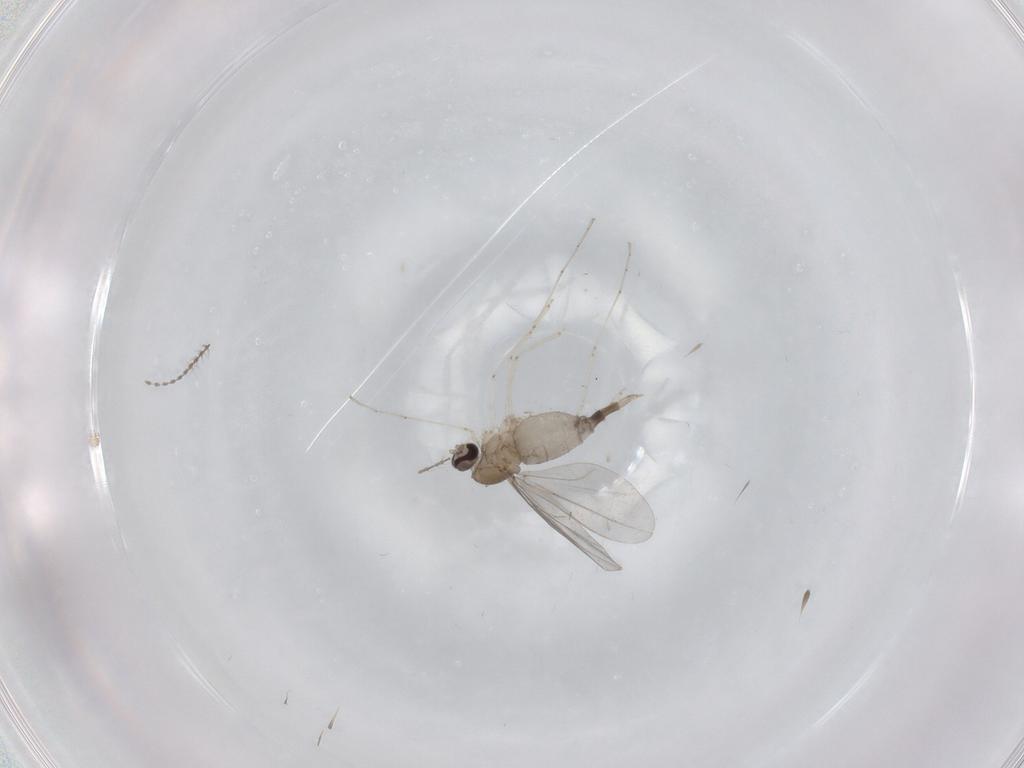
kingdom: Animalia
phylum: Arthropoda
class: Insecta
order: Diptera
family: Cecidomyiidae
